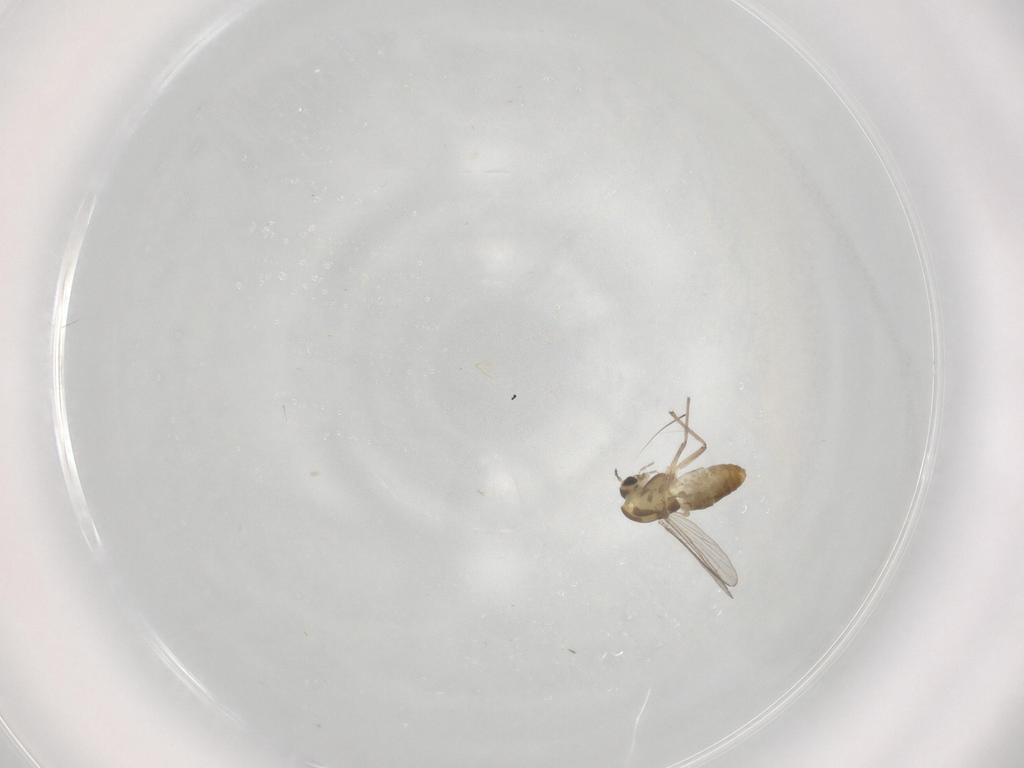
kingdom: Animalia
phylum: Arthropoda
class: Insecta
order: Diptera
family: Chironomidae
